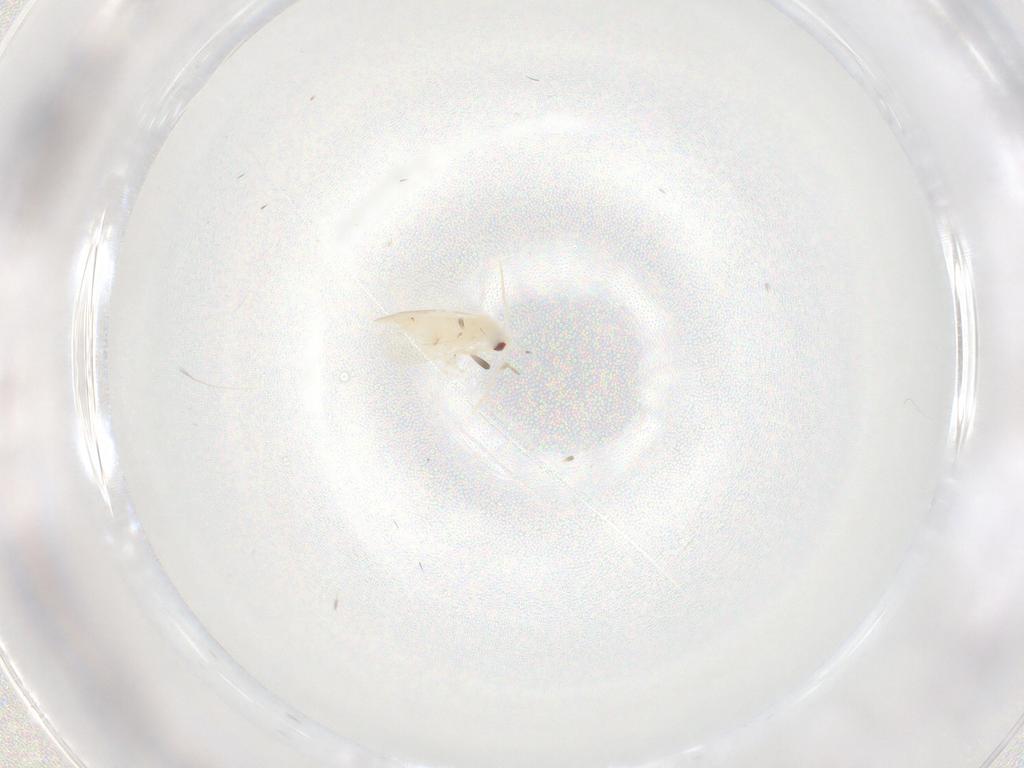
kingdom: Animalia
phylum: Arthropoda
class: Insecta
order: Hemiptera
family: Aleyrodidae
